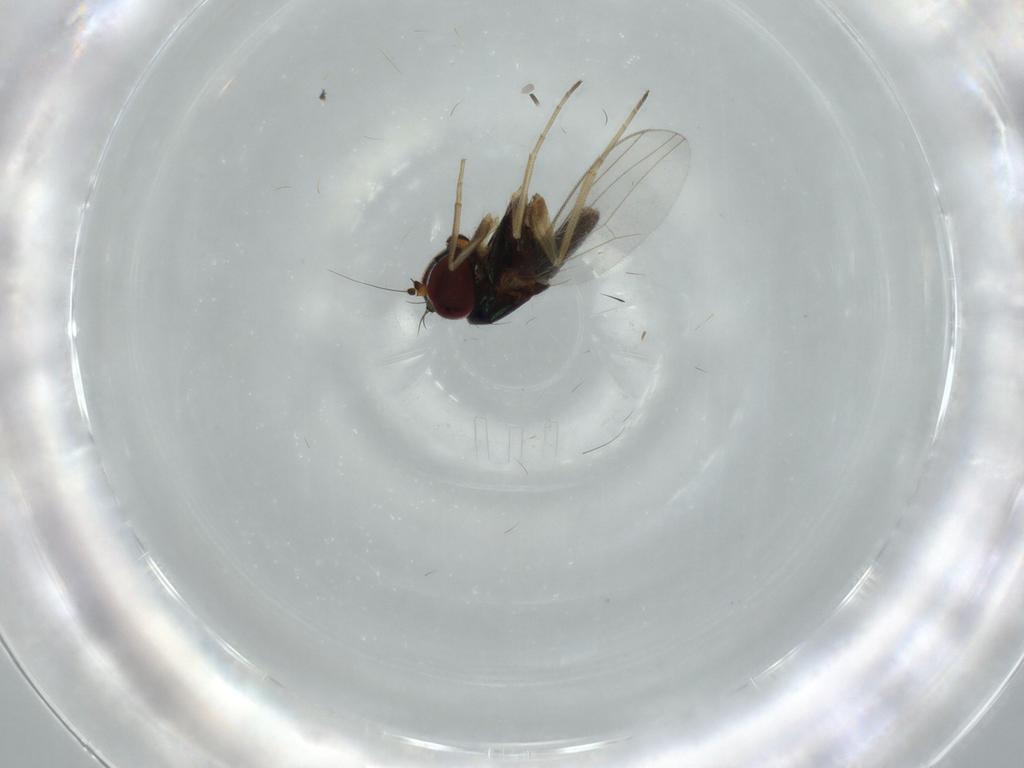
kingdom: Animalia
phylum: Arthropoda
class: Insecta
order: Diptera
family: Dolichopodidae
